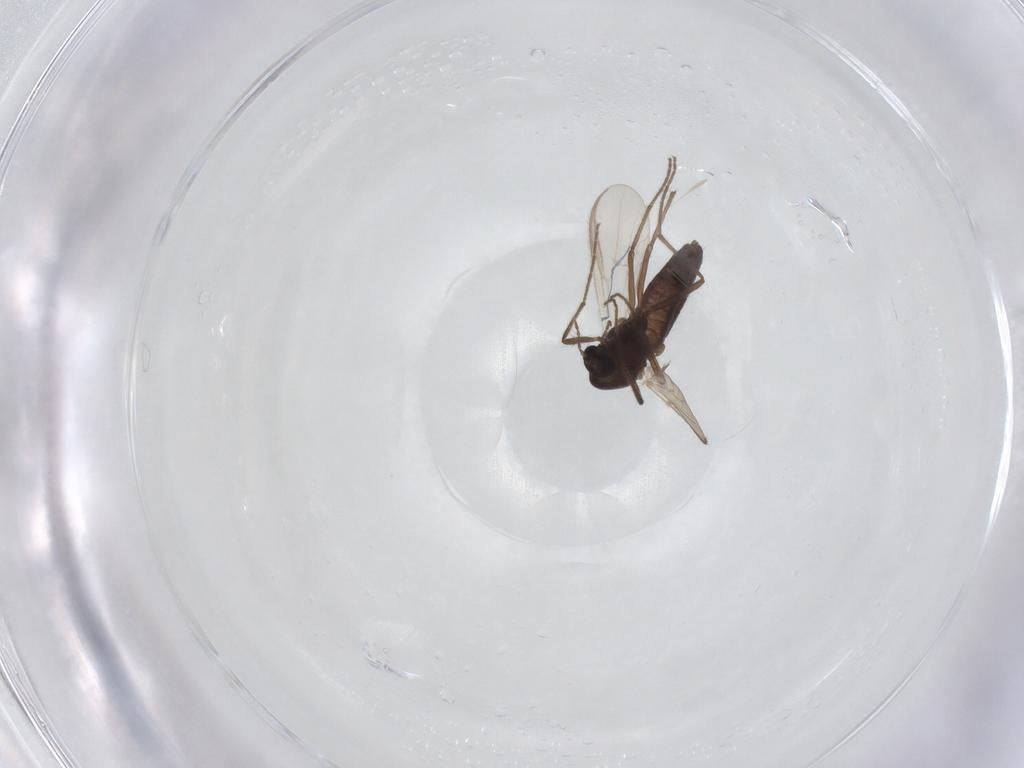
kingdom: Animalia
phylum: Arthropoda
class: Insecta
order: Diptera
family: Chironomidae
